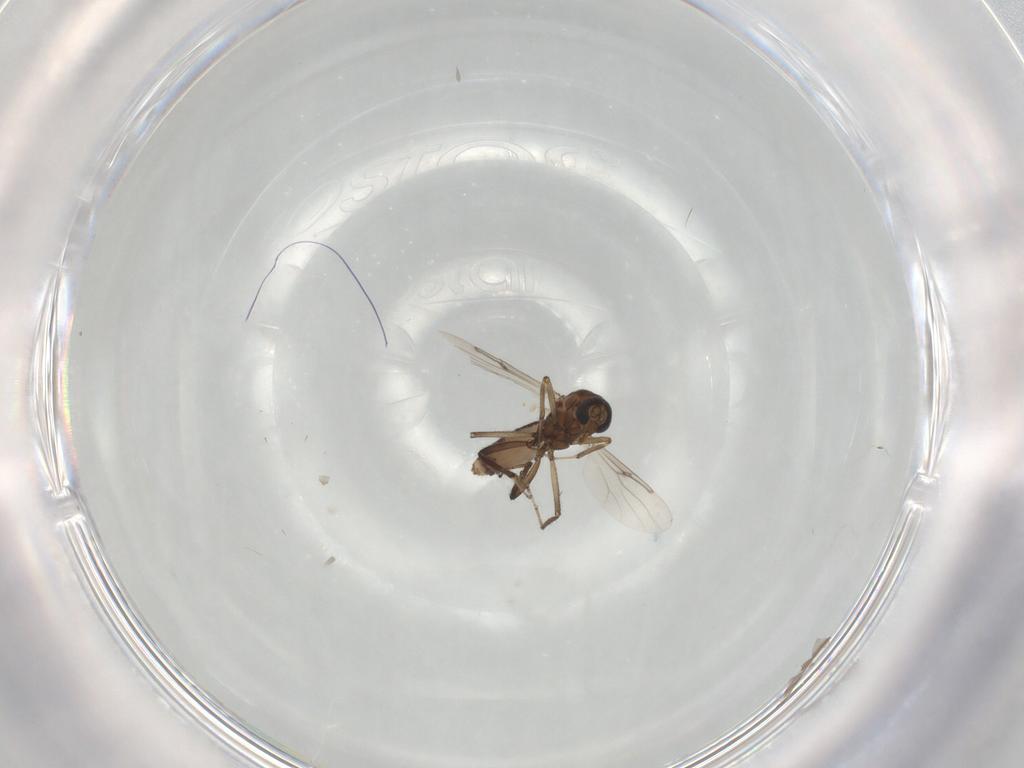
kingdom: Animalia
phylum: Arthropoda
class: Insecta
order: Diptera
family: Ceratopogonidae
